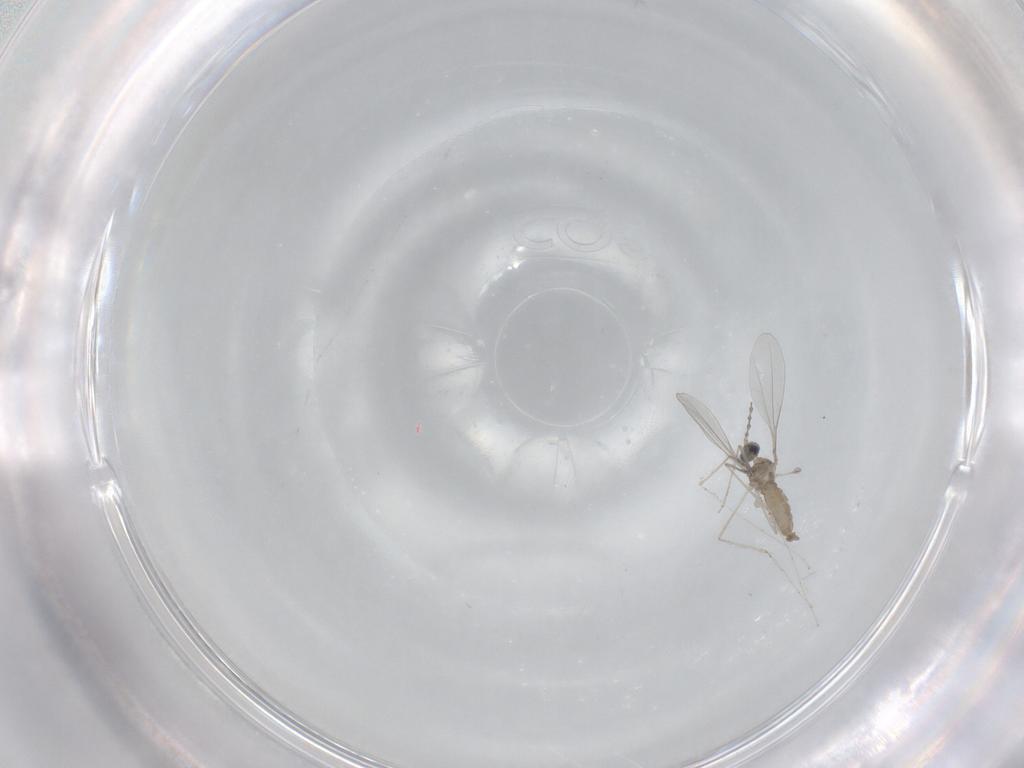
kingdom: Animalia
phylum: Arthropoda
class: Insecta
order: Diptera
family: Cecidomyiidae
